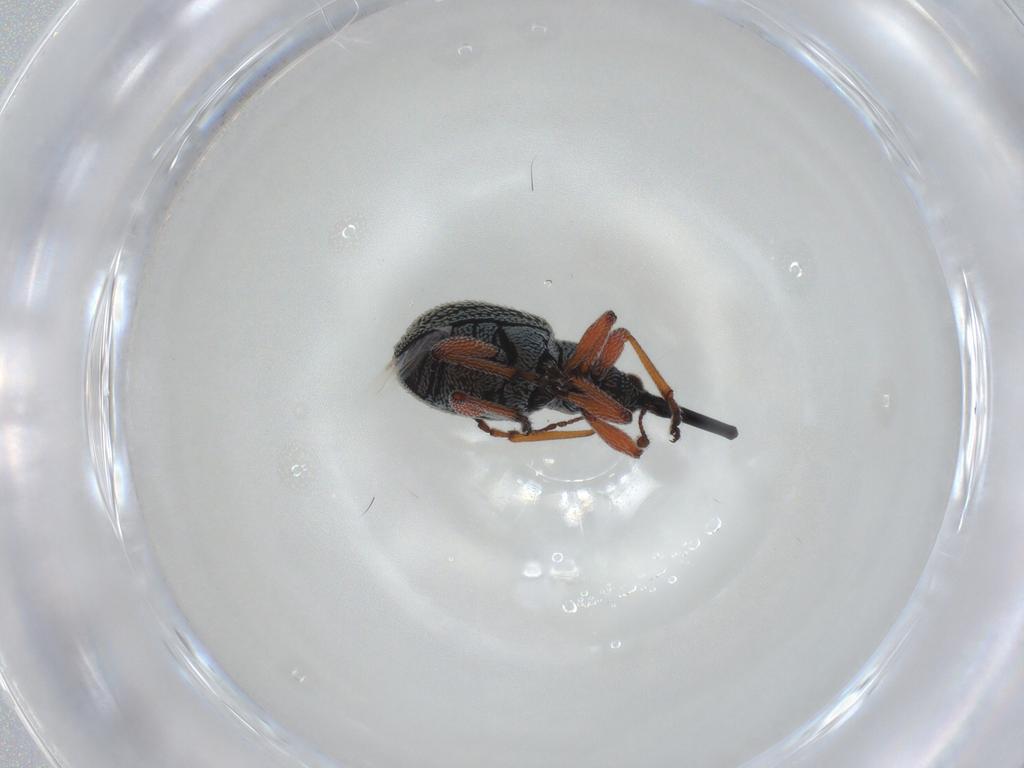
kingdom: Animalia
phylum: Arthropoda
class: Insecta
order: Coleoptera
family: Brentidae
